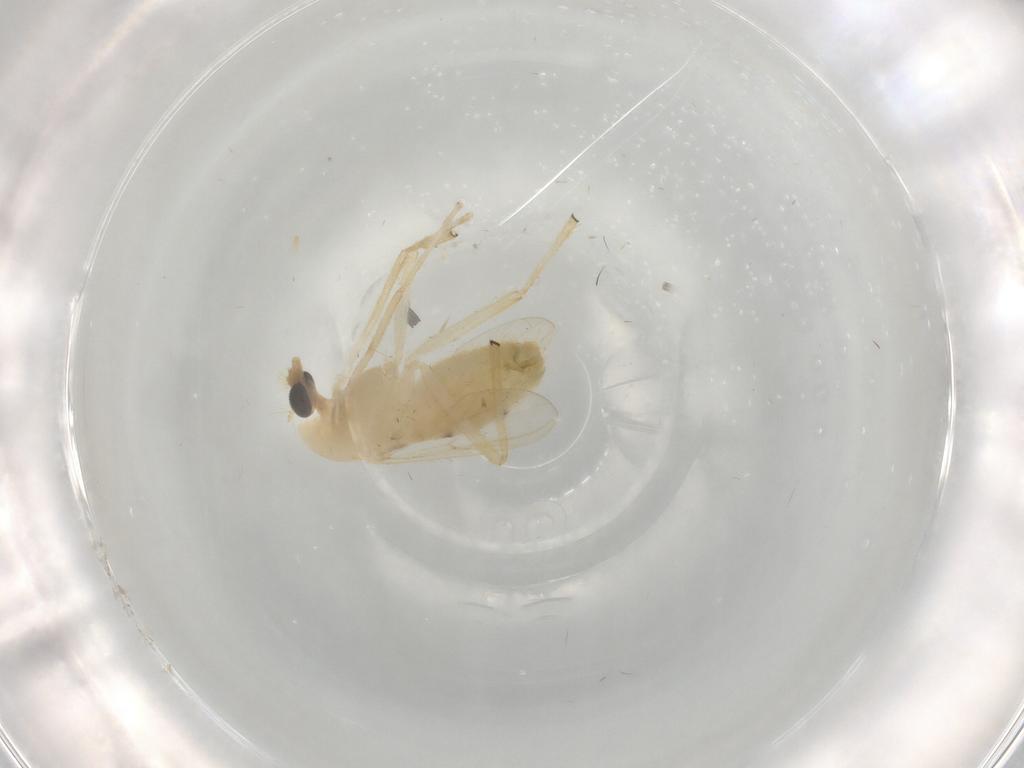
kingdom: Animalia
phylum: Arthropoda
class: Insecta
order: Diptera
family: Chironomidae
